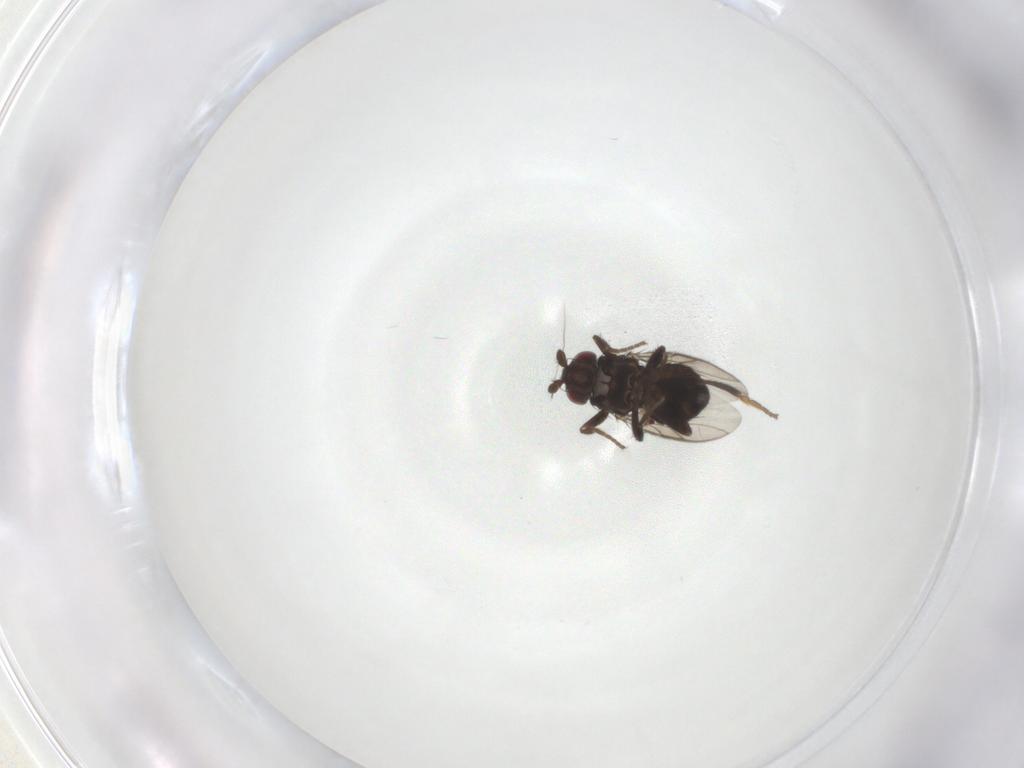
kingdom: Animalia
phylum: Arthropoda
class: Insecta
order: Diptera
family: Sphaeroceridae
